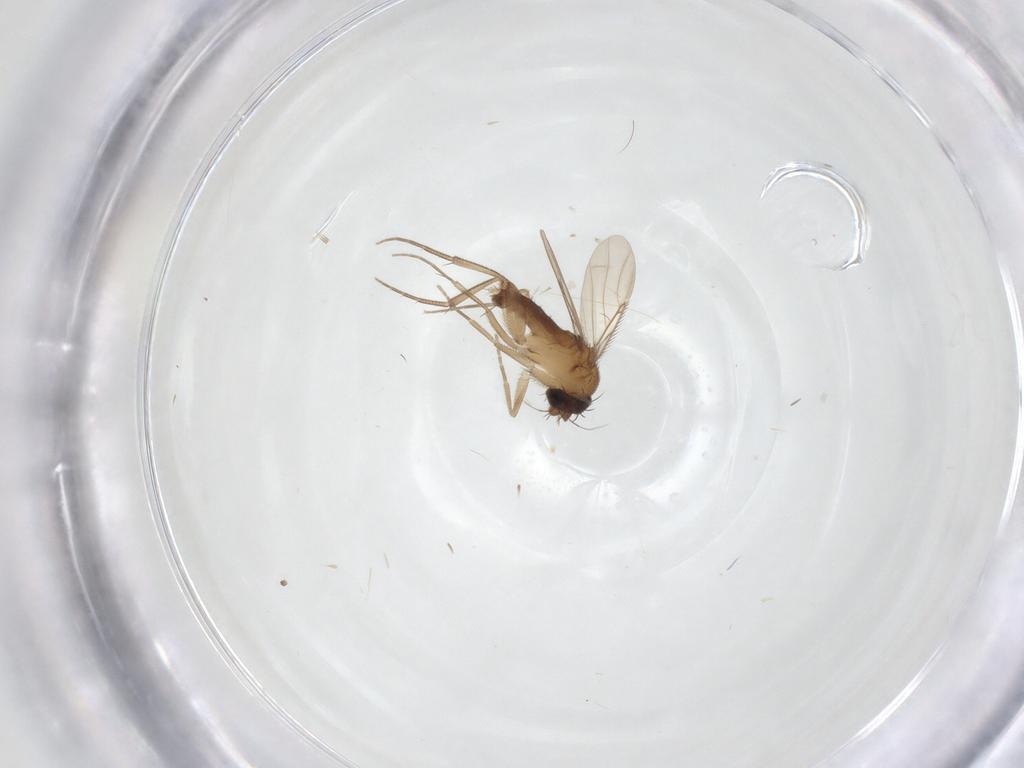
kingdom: Animalia
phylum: Arthropoda
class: Insecta
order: Diptera
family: Phoridae
